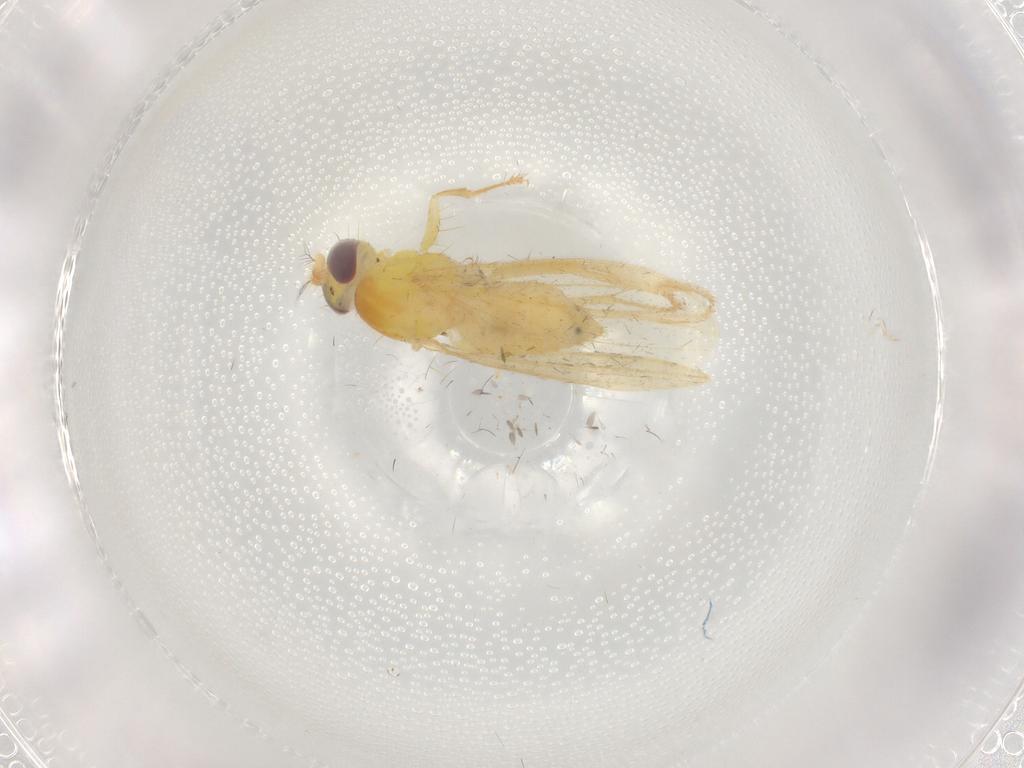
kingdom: Animalia
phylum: Arthropoda
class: Insecta
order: Diptera
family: Periscelididae
